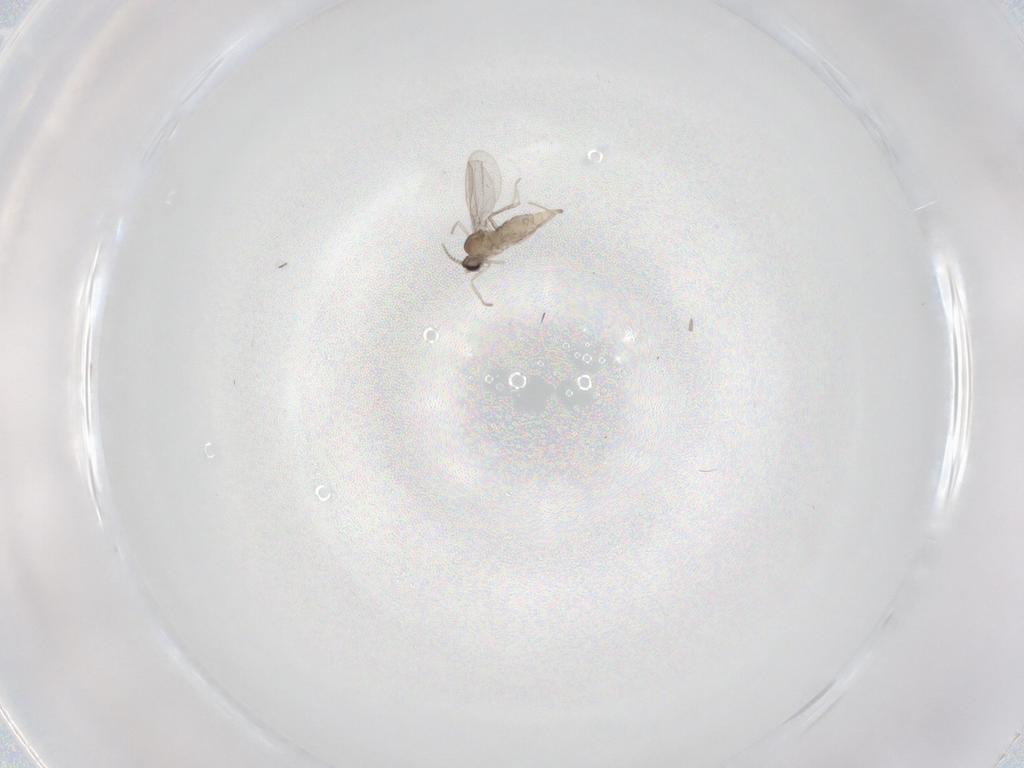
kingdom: Animalia
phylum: Arthropoda
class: Insecta
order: Diptera
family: Cecidomyiidae
